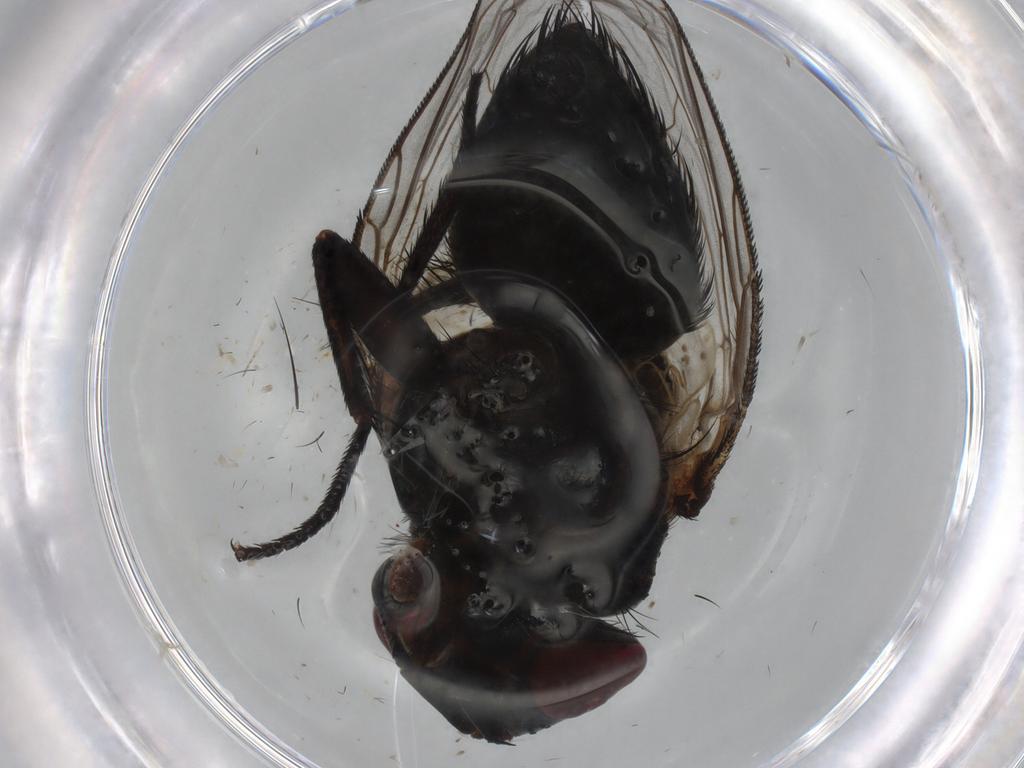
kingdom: Animalia
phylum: Arthropoda
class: Insecta
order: Diptera
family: Tachinidae
